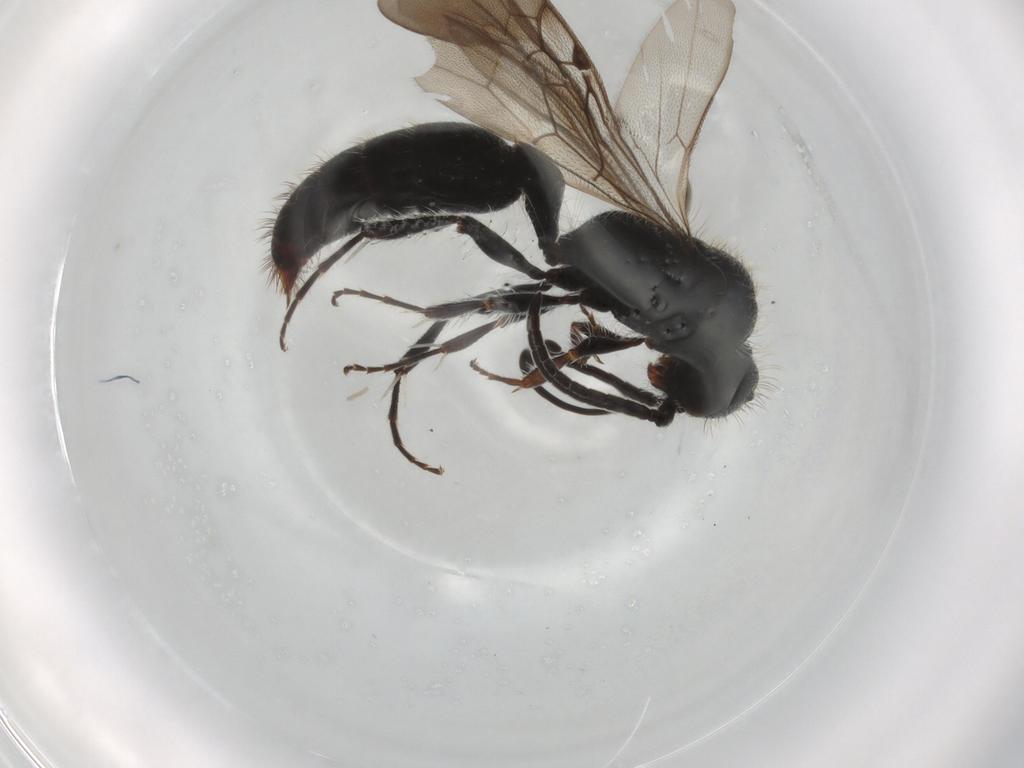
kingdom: Animalia
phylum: Arthropoda
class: Insecta
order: Hymenoptera
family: Mutillidae
